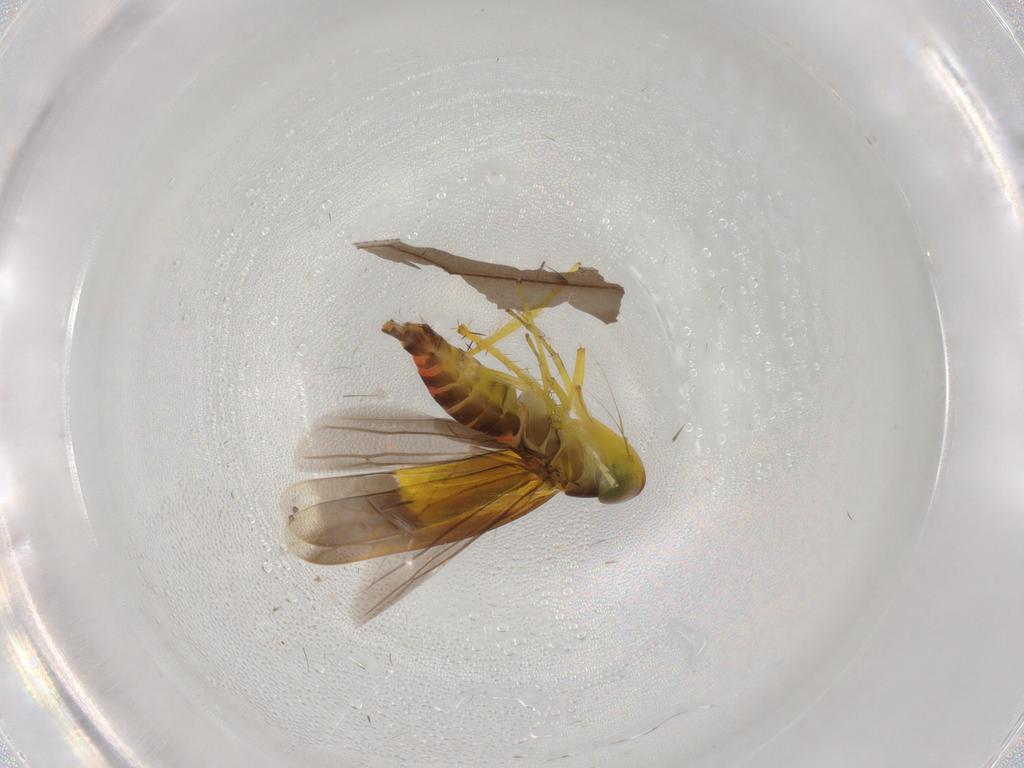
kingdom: Animalia
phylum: Arthropoda
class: Insecta
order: Hemiptera
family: Cicadellidae
